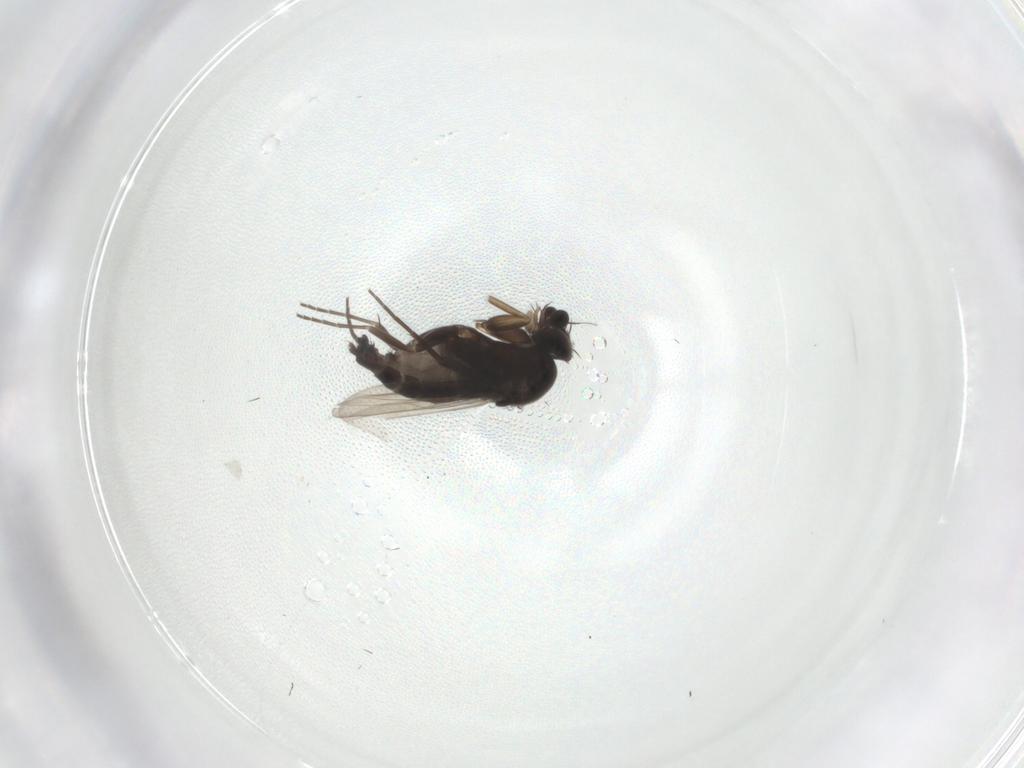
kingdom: Animalia
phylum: Arthropoda
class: Insecta
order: Diptera
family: Phoridae
